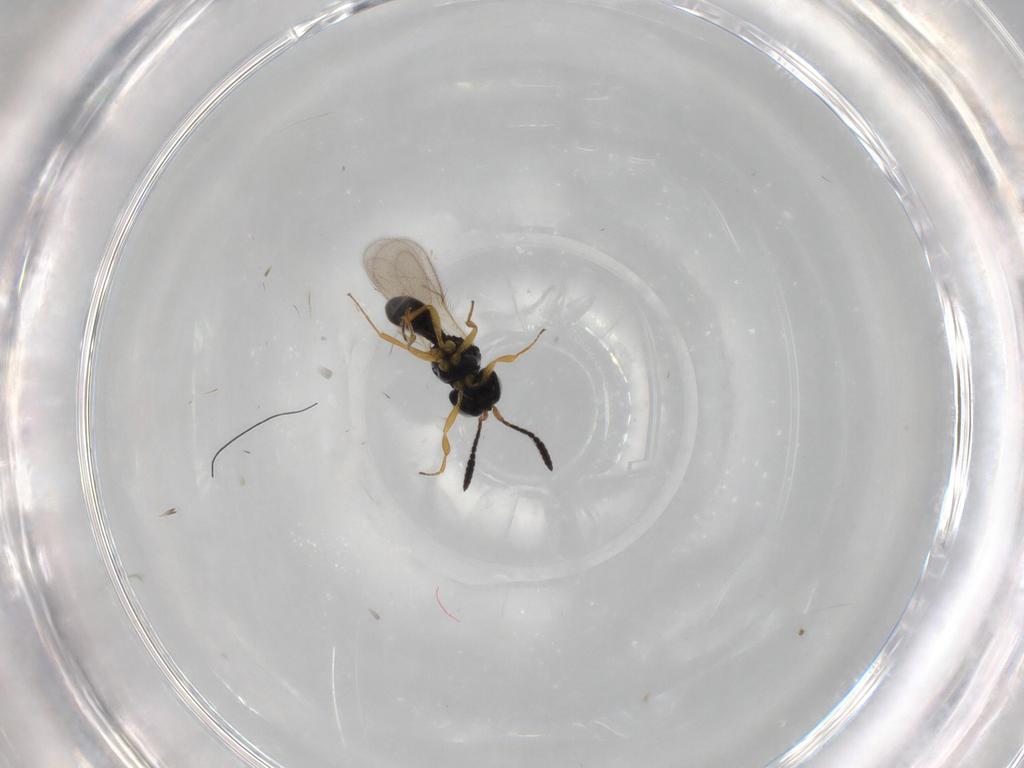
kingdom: Animalia
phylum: Arthropoda
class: Insecta
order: Hymenoptera
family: Scelionidae
